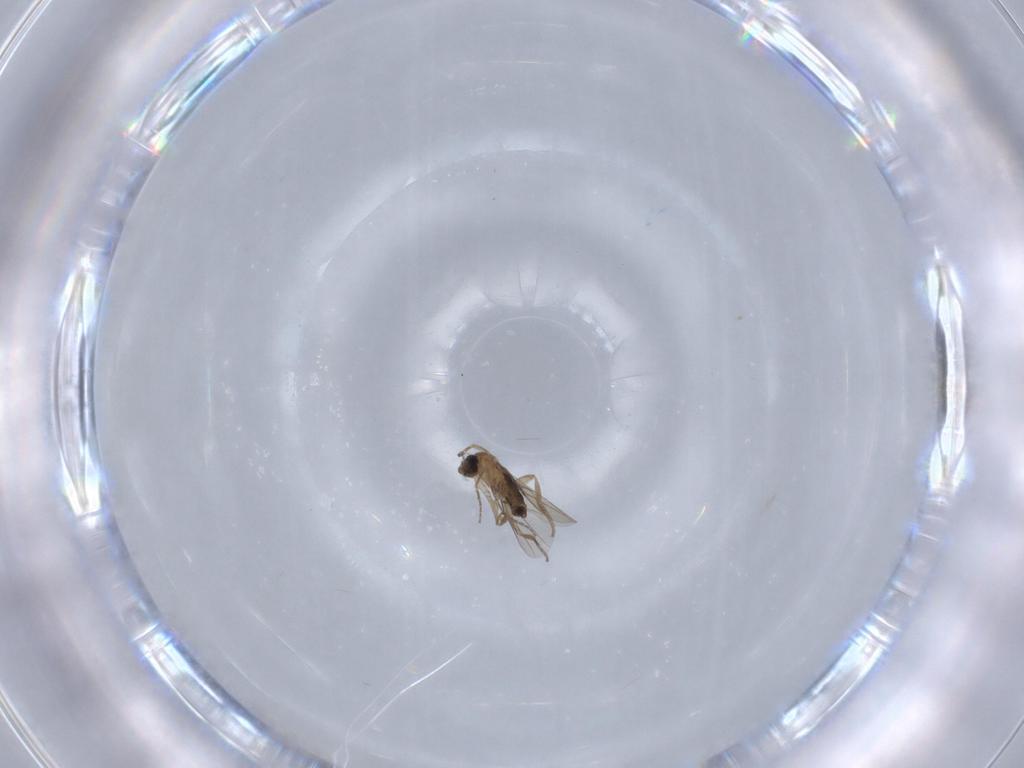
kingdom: Animalia
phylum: Arthropoda
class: Insecta
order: Diptera
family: Phoridae
